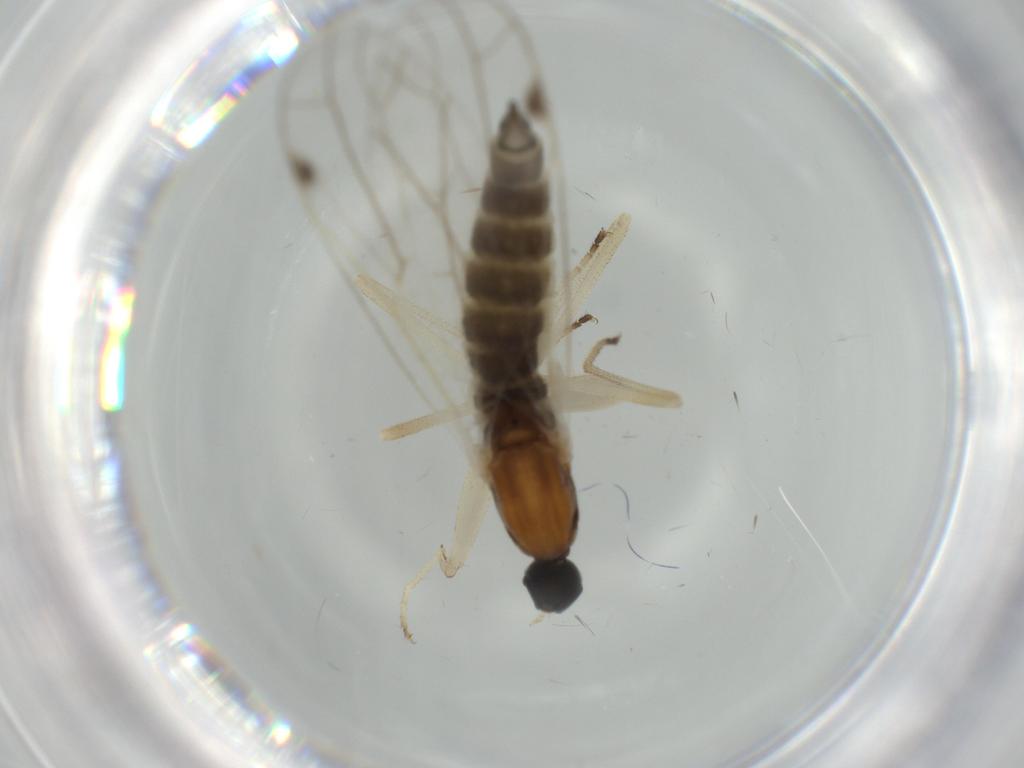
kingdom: Animalia
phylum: Arthropoda
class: Insecta
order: Diptera
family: Empididae
